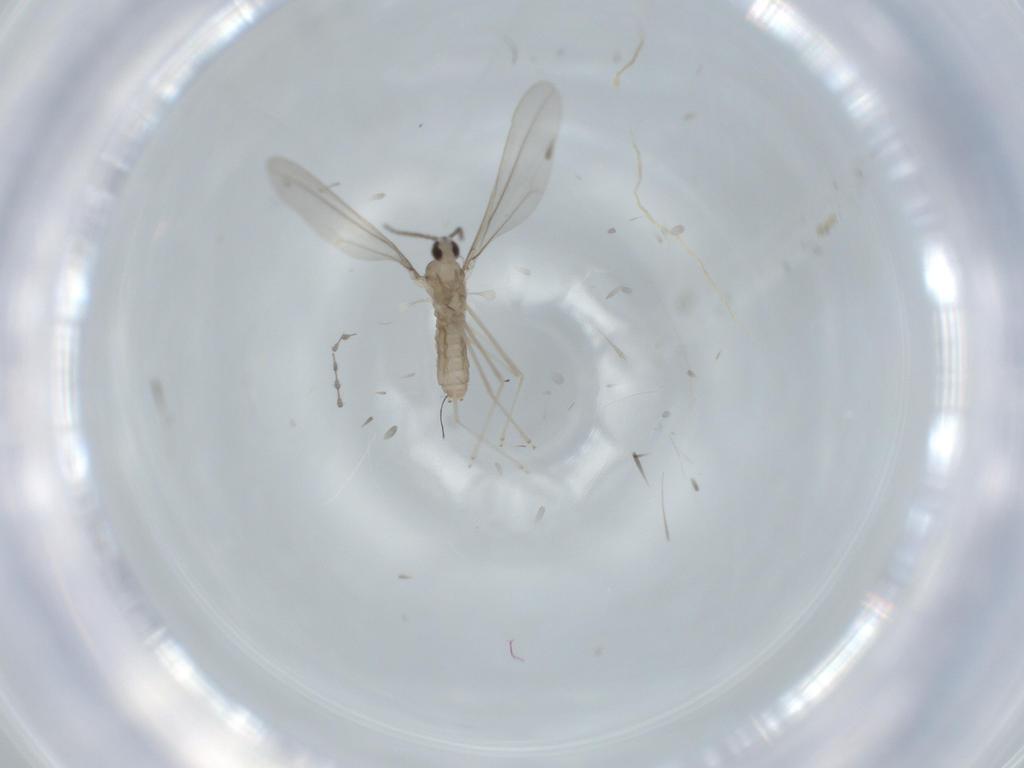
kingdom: Animalia
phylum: Arthropoda
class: Insecta
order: Diptera
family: Cecidomyiidae
